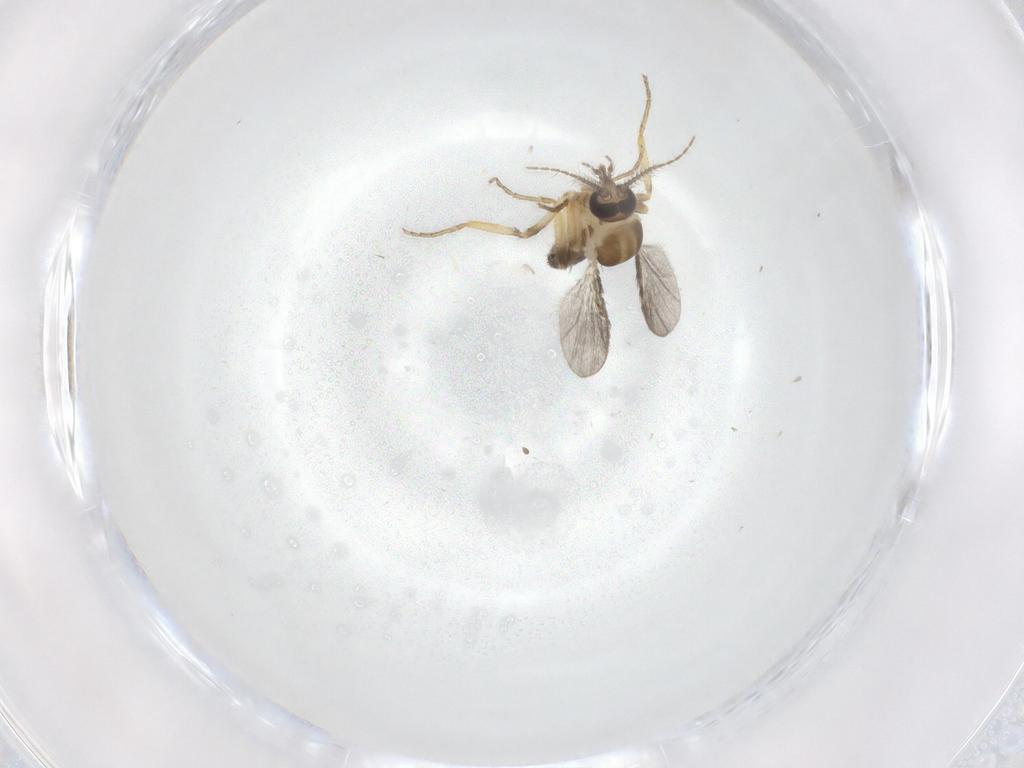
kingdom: Animalia
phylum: Arthropoda
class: Insecta
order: Diptera
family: Ceratopogonidae
